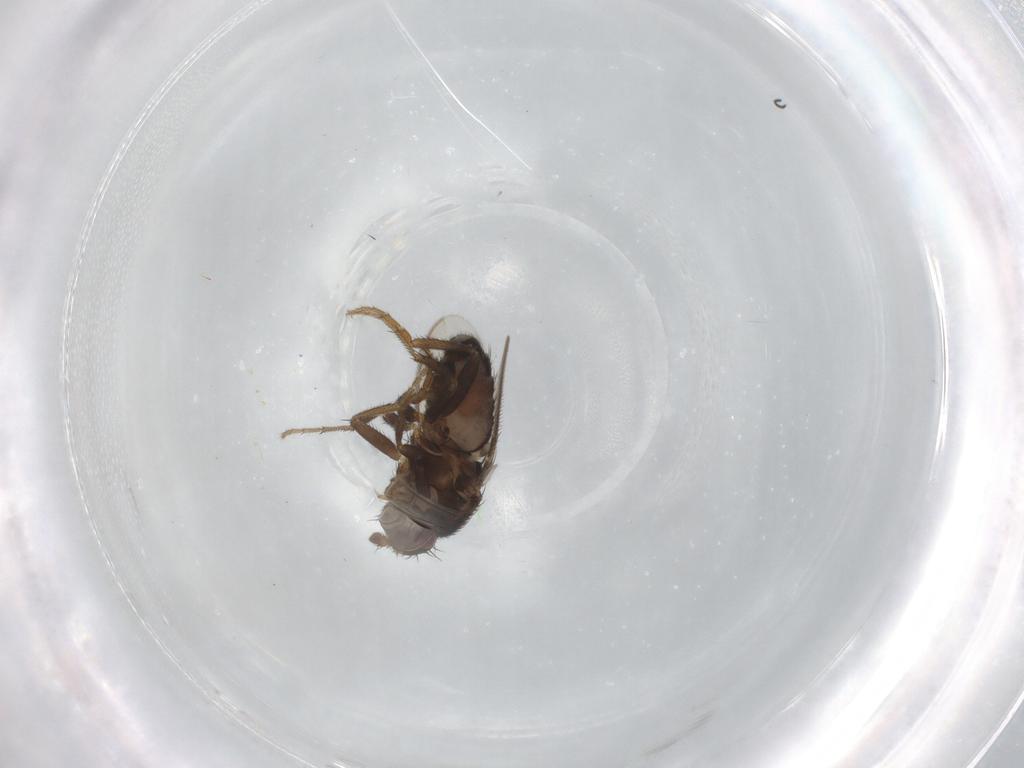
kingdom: Animalia
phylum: Arthropoda
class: Insecta
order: Diptera
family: Sphaeroceridae
